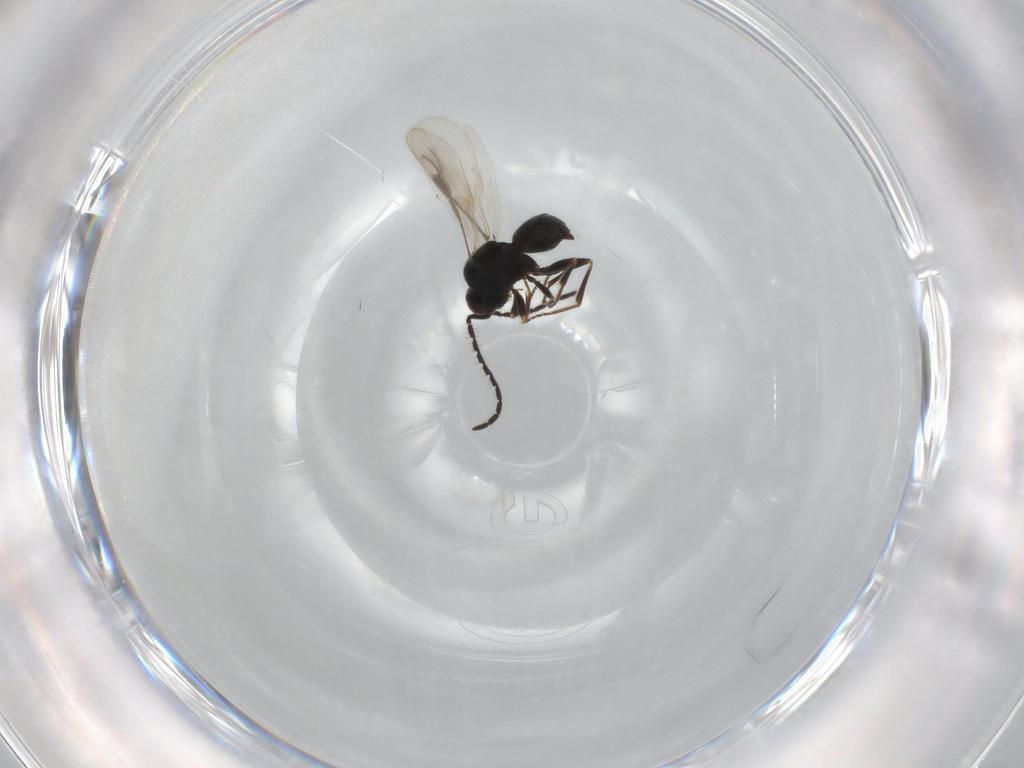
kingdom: Animalia
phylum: Arthropoda
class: Insecta
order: Hymenoptera
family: Megaspilidae
